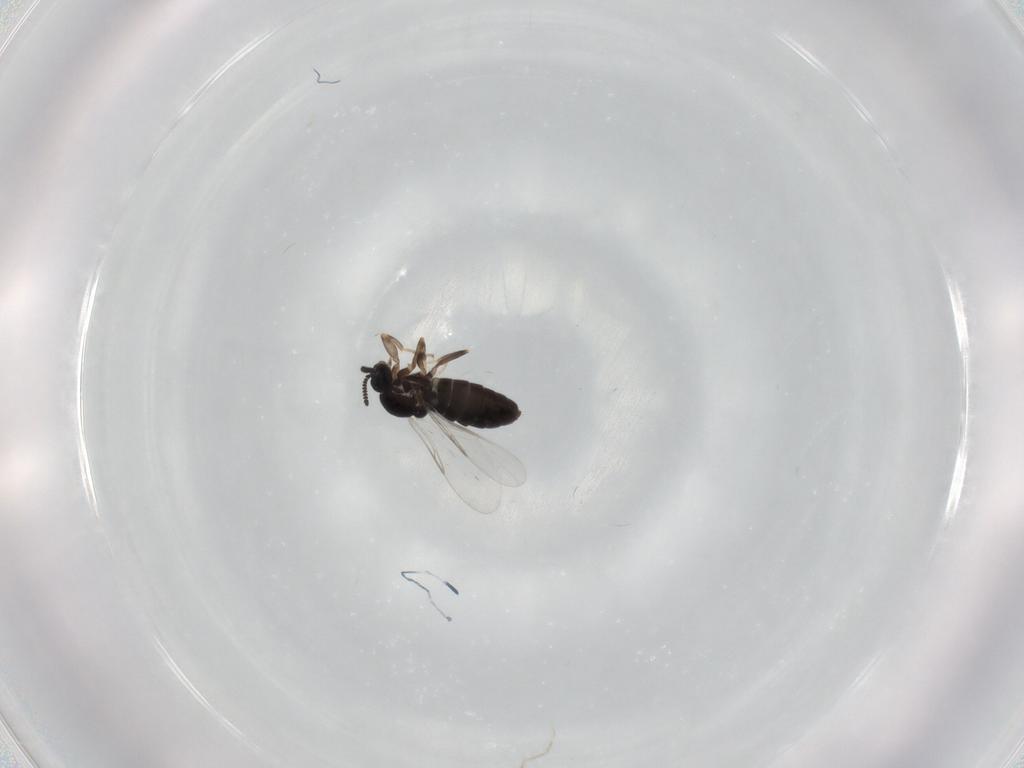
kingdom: Animalia
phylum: Arthropoda
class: Insecta
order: Diptera
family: Scatopsidae
